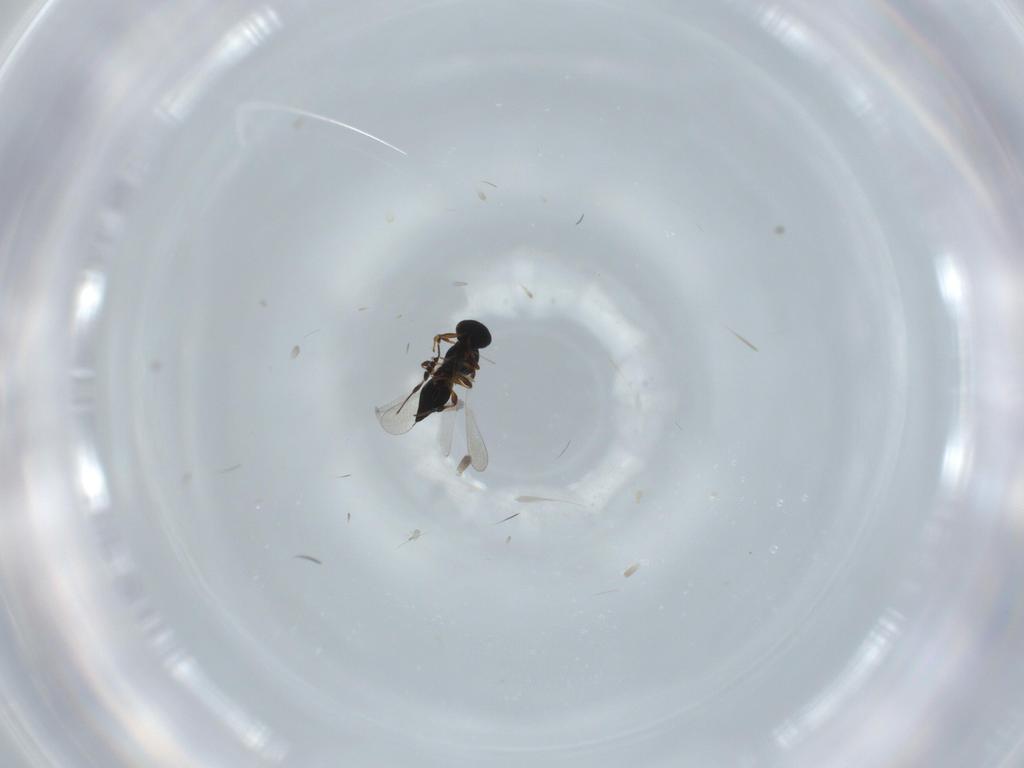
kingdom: Animalia
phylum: Arthropoda
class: Insecta
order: Hymenoptera
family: Platygastridae
